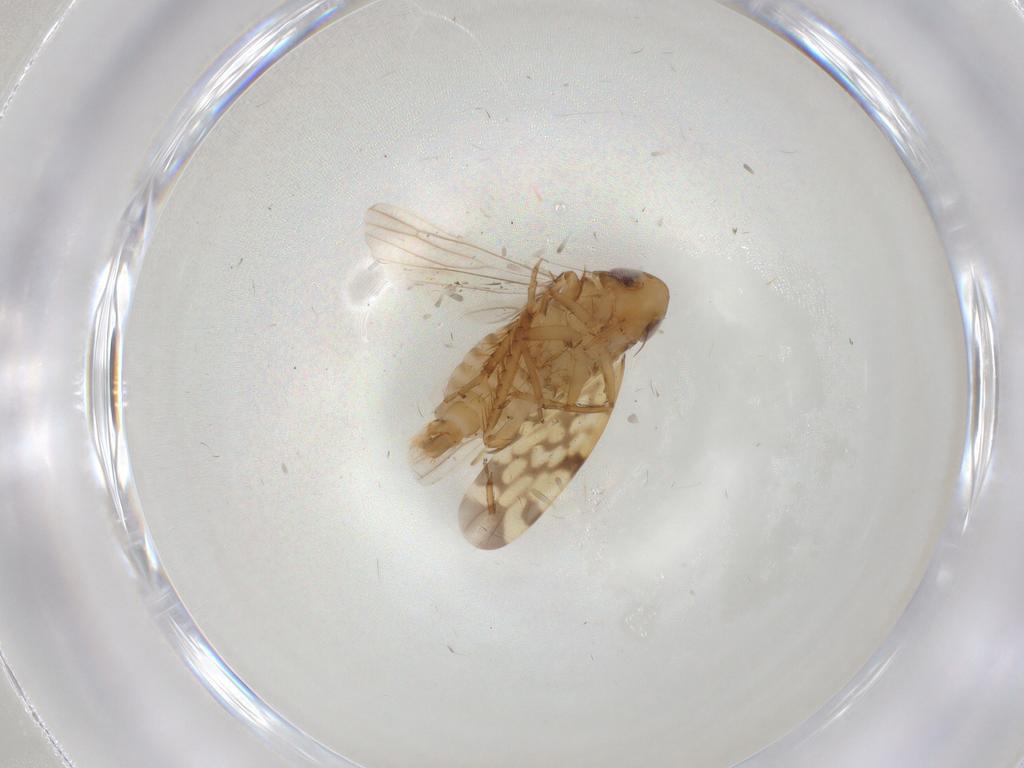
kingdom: Animalia
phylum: Arthropoda
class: Insecta
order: Hemiptera
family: Cicadellidae
